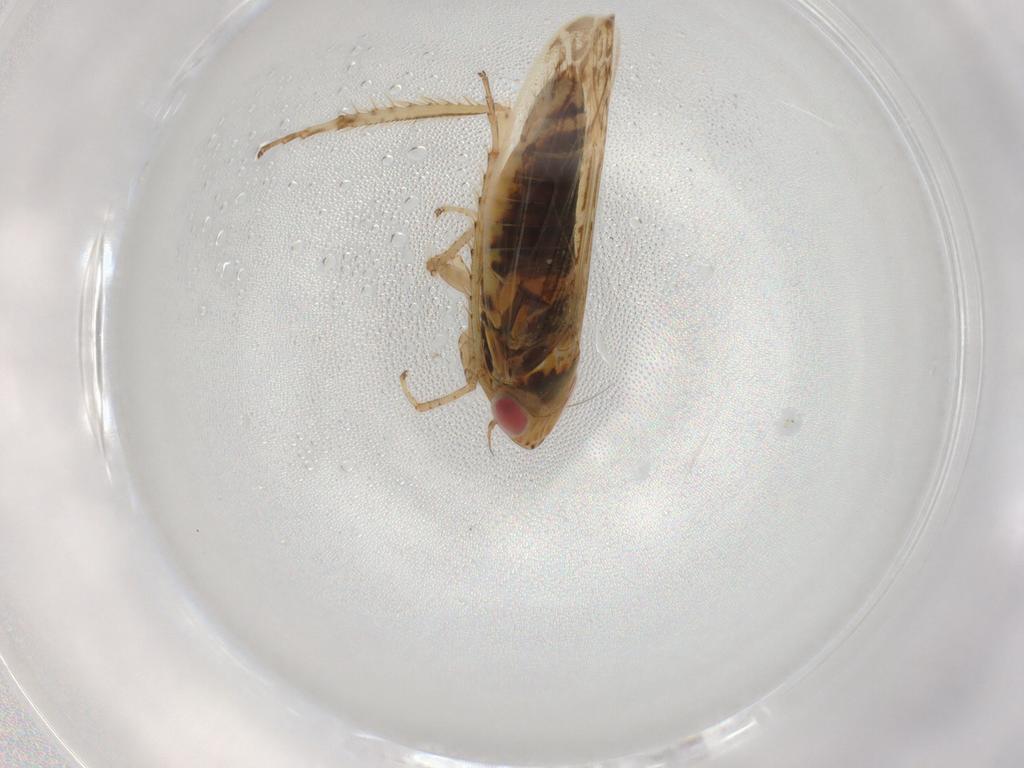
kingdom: Animalia
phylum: Arthropoda
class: Insecta
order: Hemiptera
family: Cicadellidae
